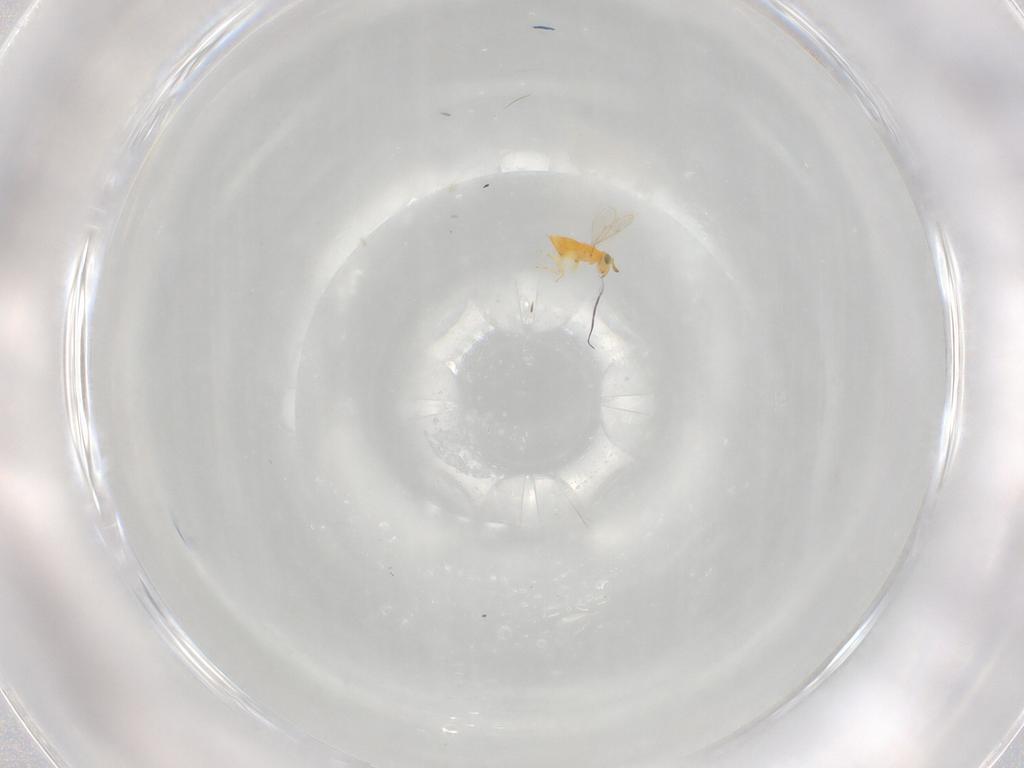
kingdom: Animalia
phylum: Arthropoda
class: Insecta
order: Hymenoptera
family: Aphelinidae
